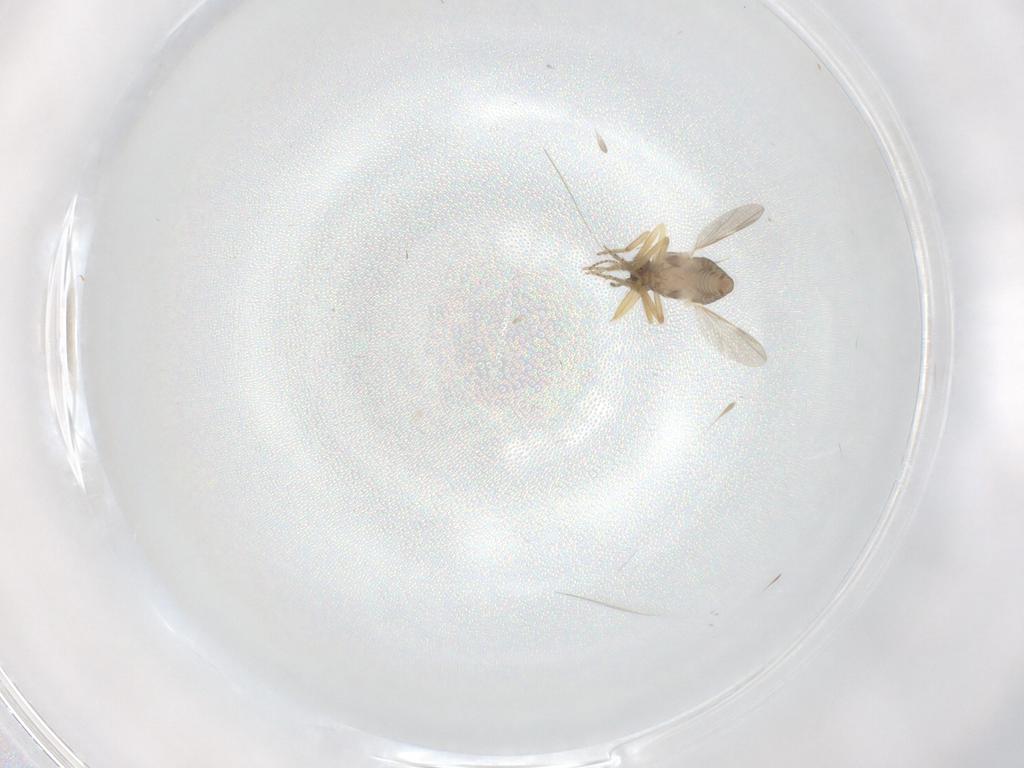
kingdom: Animalia
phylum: Arthropoda
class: Insecta
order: Diptera
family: Ceratopogonidae
